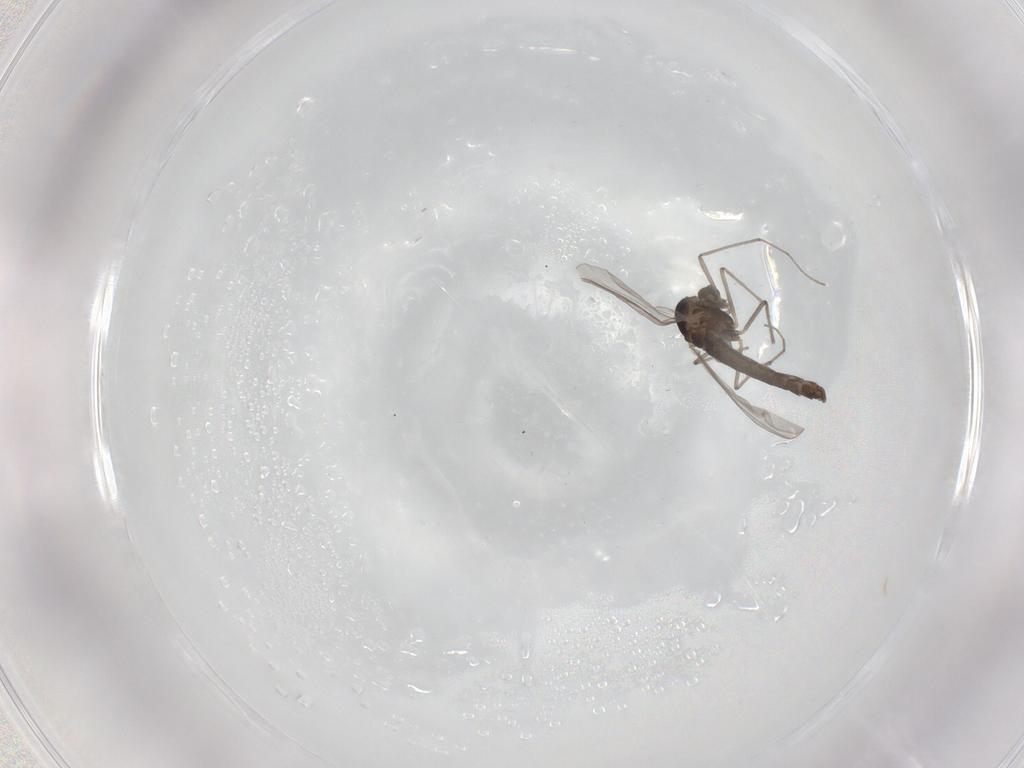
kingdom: Animalia
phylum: Arthropoda
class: Insecta
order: Diptera
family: Chironomidae
